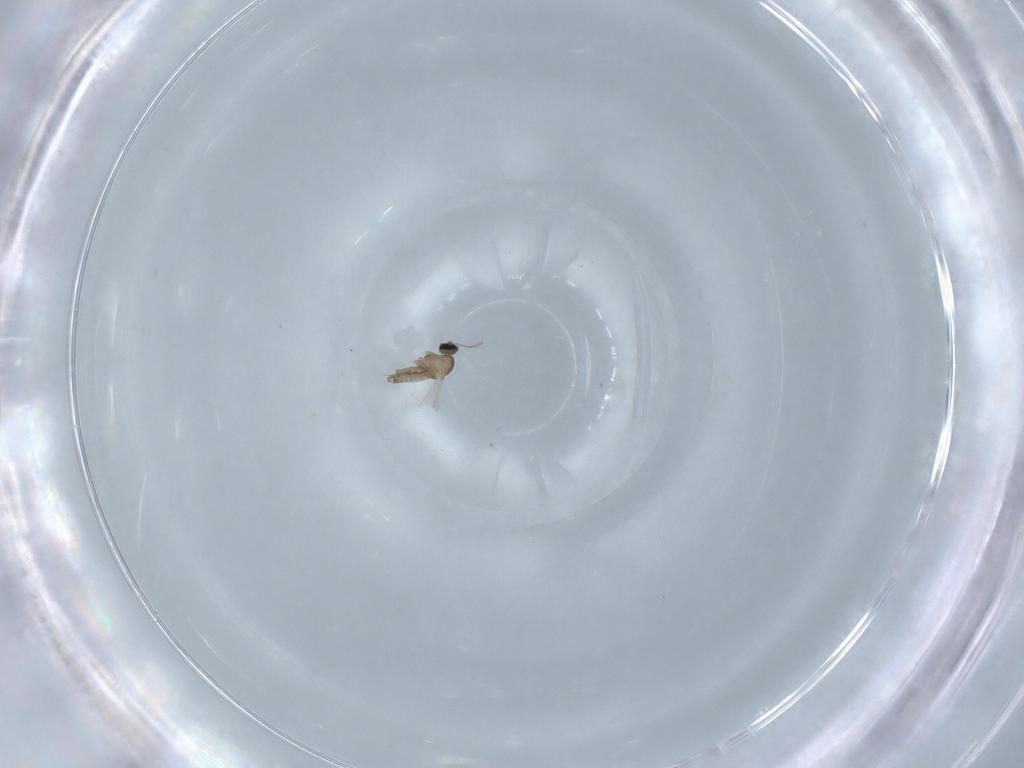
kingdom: Animalia
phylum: Arthropoda
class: Insecta
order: Diptera
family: Cecidomyiidae
